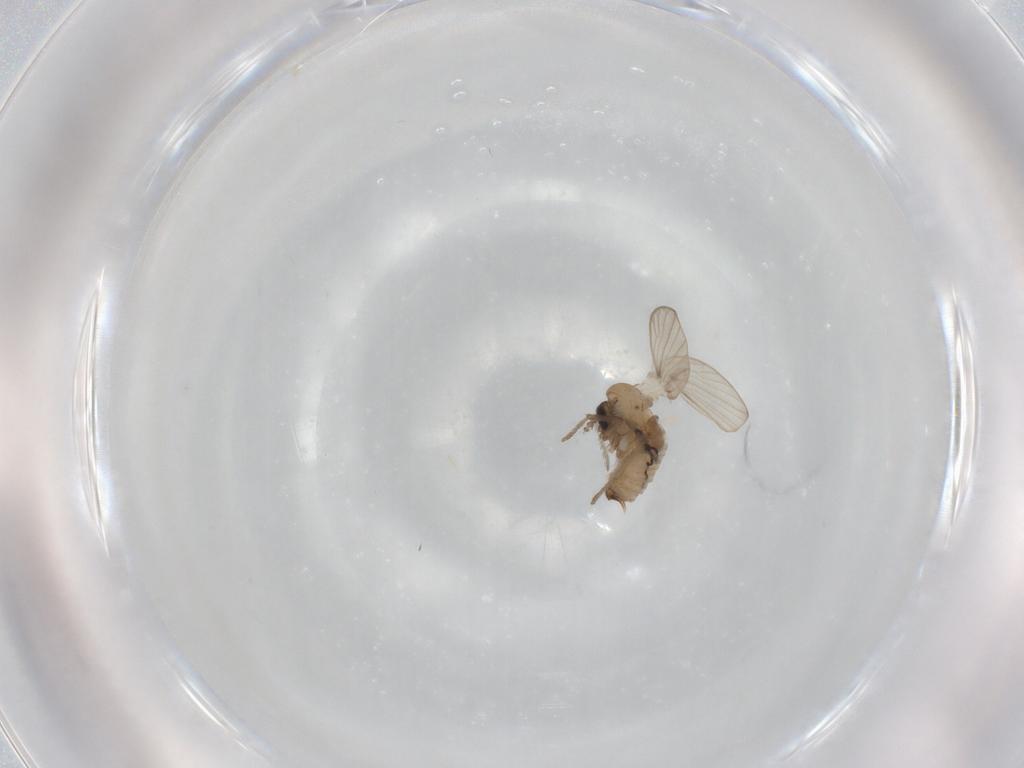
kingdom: Animalia
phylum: Arthropoda
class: Insecta
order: Diptera
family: Psychodidae
